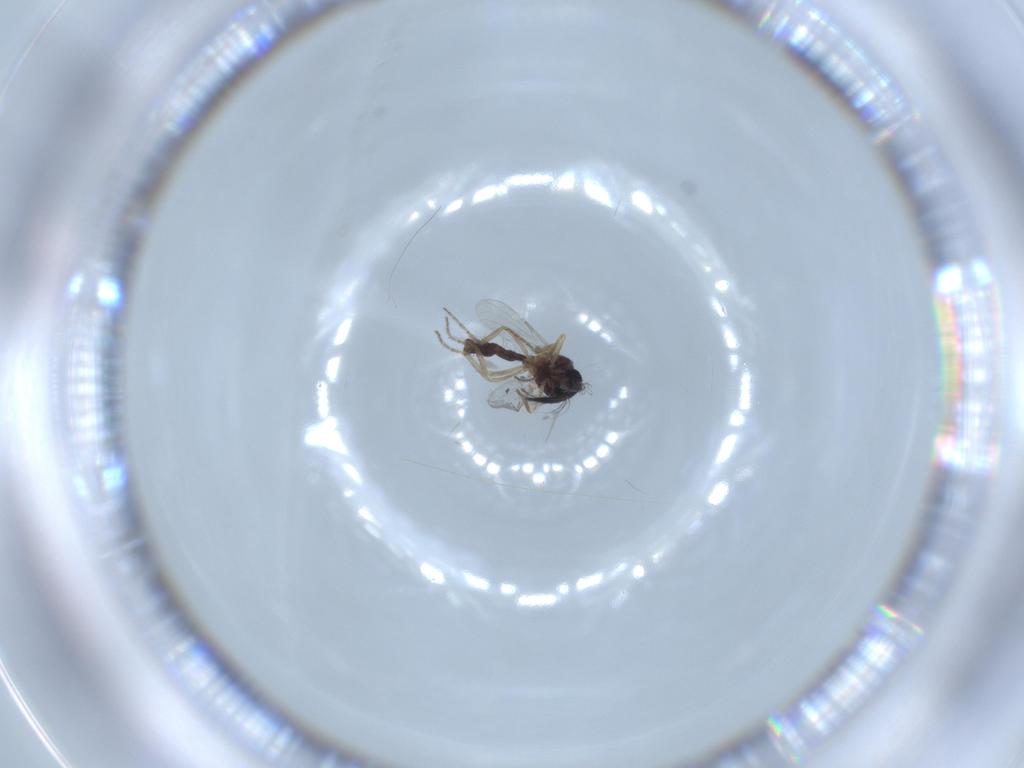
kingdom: Animalia
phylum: Arthropoda
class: Insecta
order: Diptera
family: Ceratopogonidae
